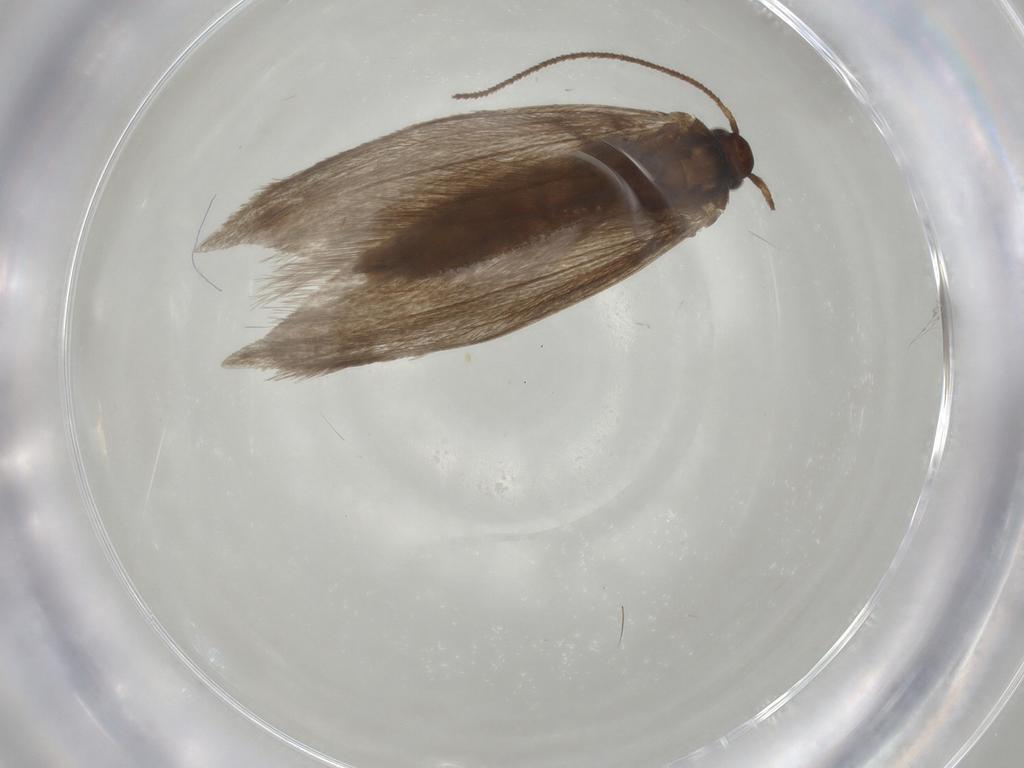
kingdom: Animalia
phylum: Arthropoda
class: Insecta
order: Lepidoptera
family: Limacodidae
